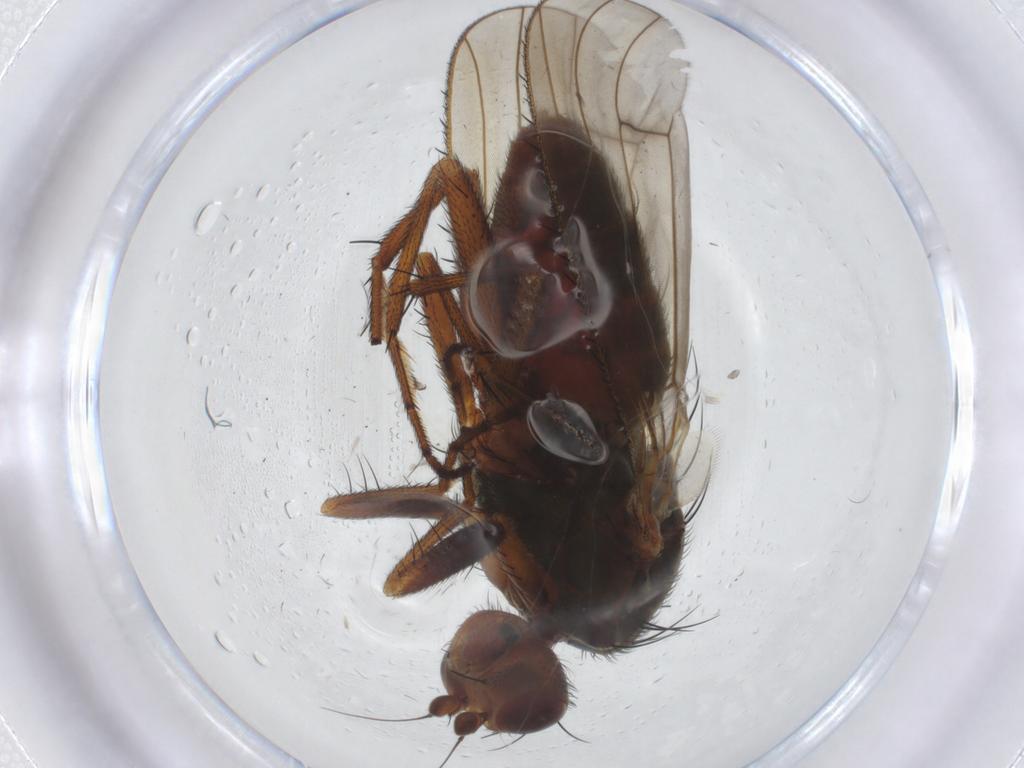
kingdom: Animalia
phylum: Arthropoda
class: Insecta
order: Diptera
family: Heleomyzidae
